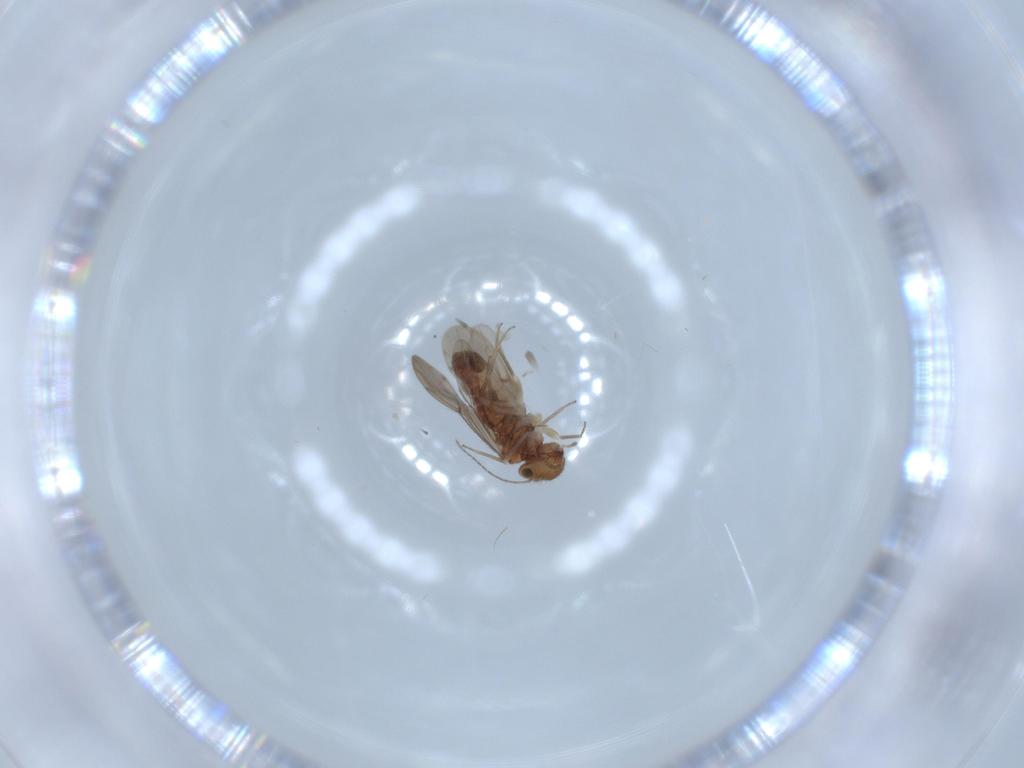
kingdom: Animalia
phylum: Arthropoda
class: Insecta
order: Psocodea
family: Ectopsocidae
